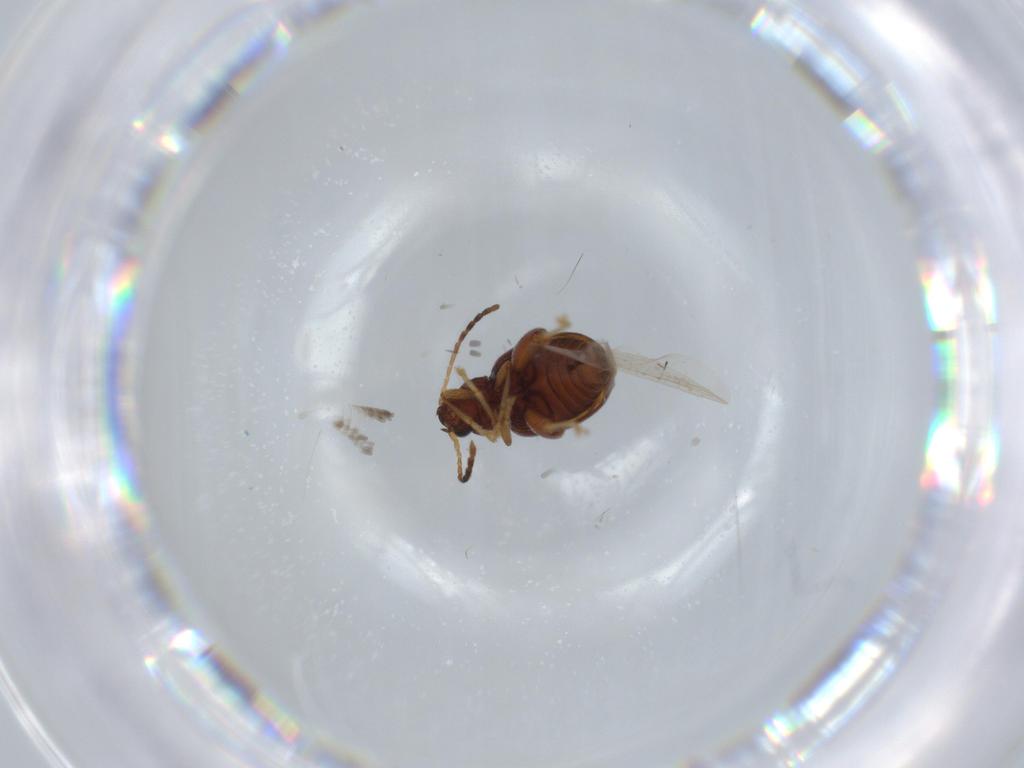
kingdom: Animalia
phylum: Arthropoda
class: Insecta
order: Coleoptera
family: Chrysomelidae
